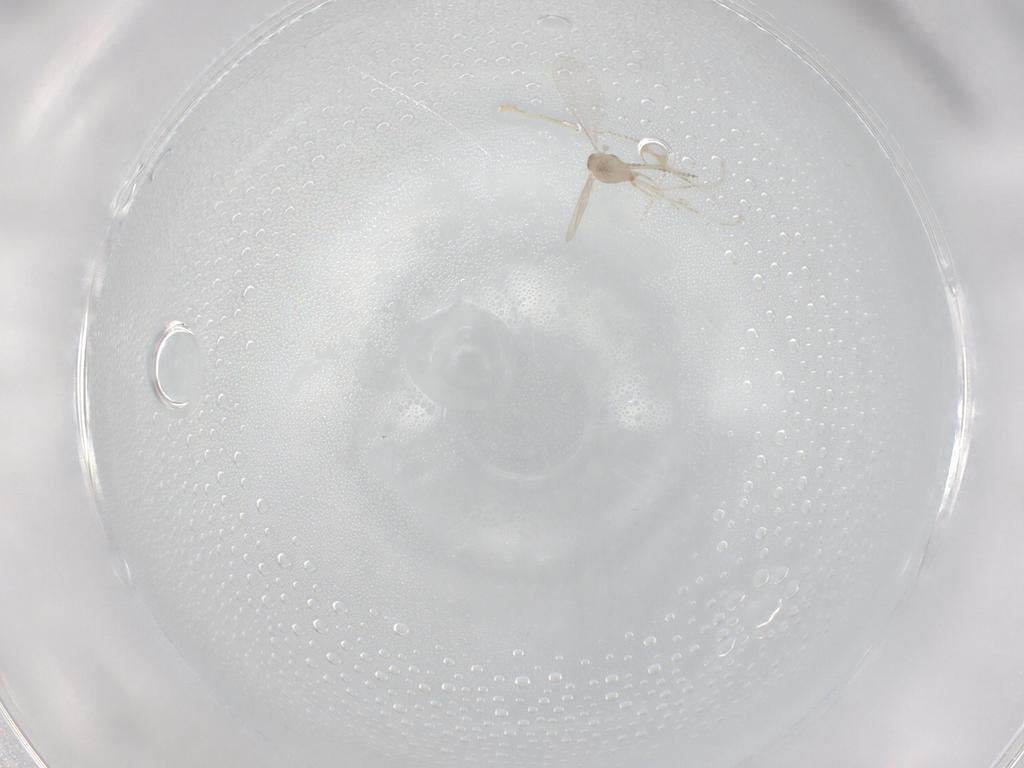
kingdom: Animalia
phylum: Arthropoda
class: Insecta
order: Diptera
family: Cecidomyiidae
